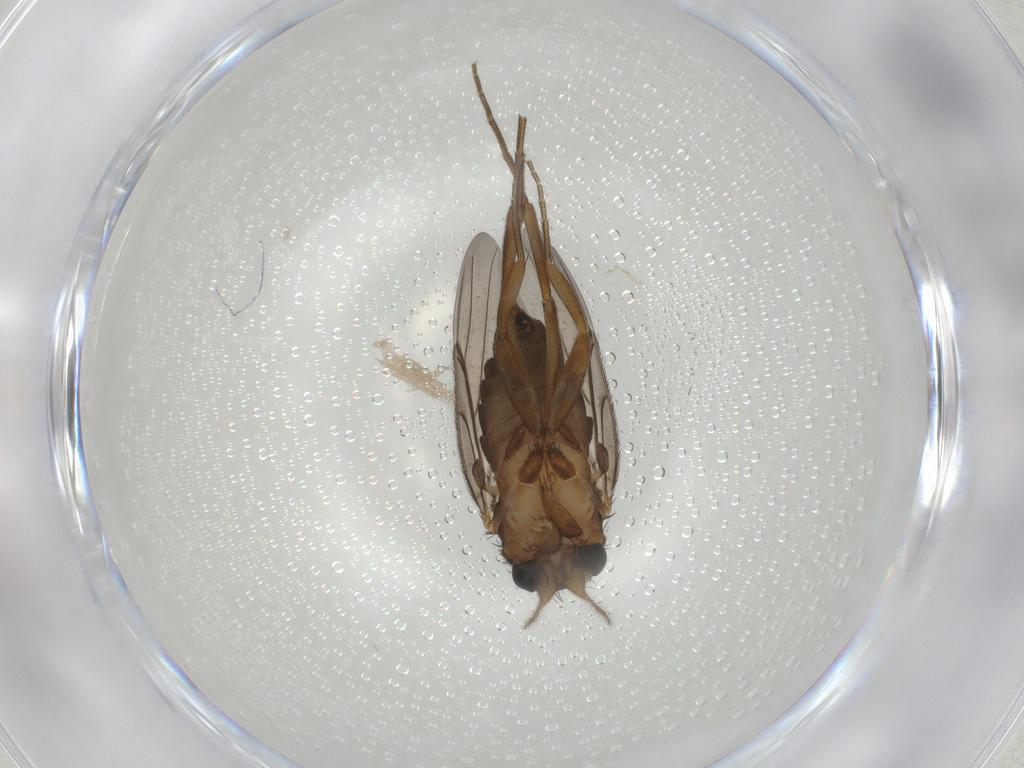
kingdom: Animalia
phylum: Arthropoda
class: Insecta
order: Diptera
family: Cecidomyiidae
